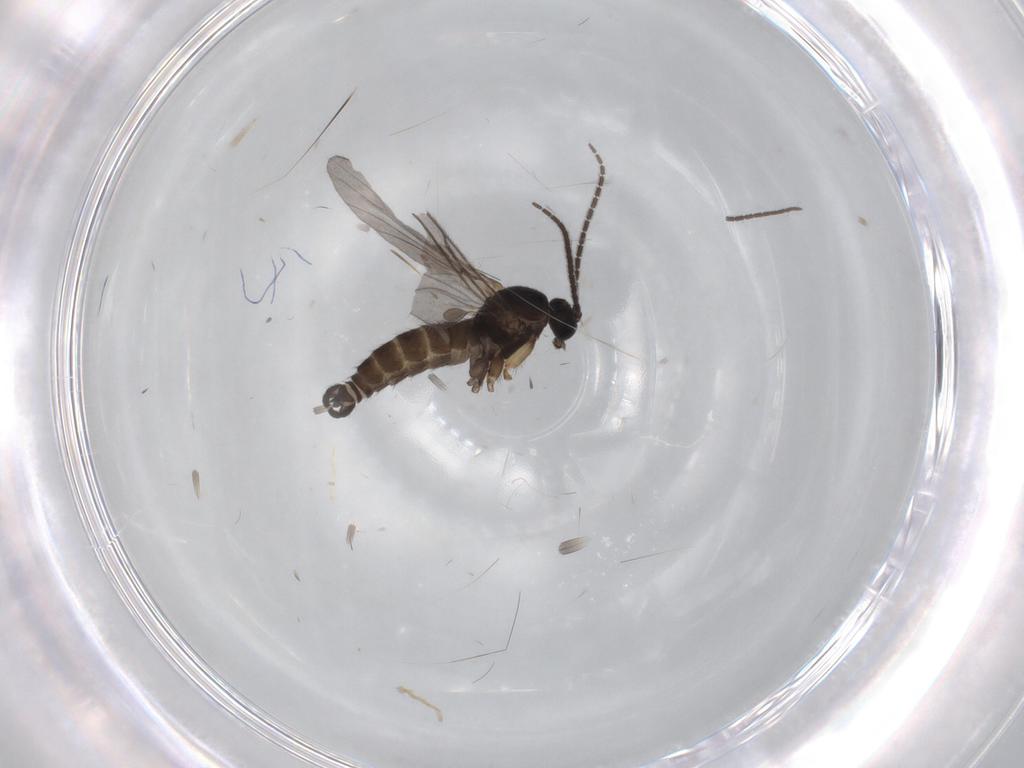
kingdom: Animalia
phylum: Arthropoda
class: Insecta
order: Diptera
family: Sciaridae
